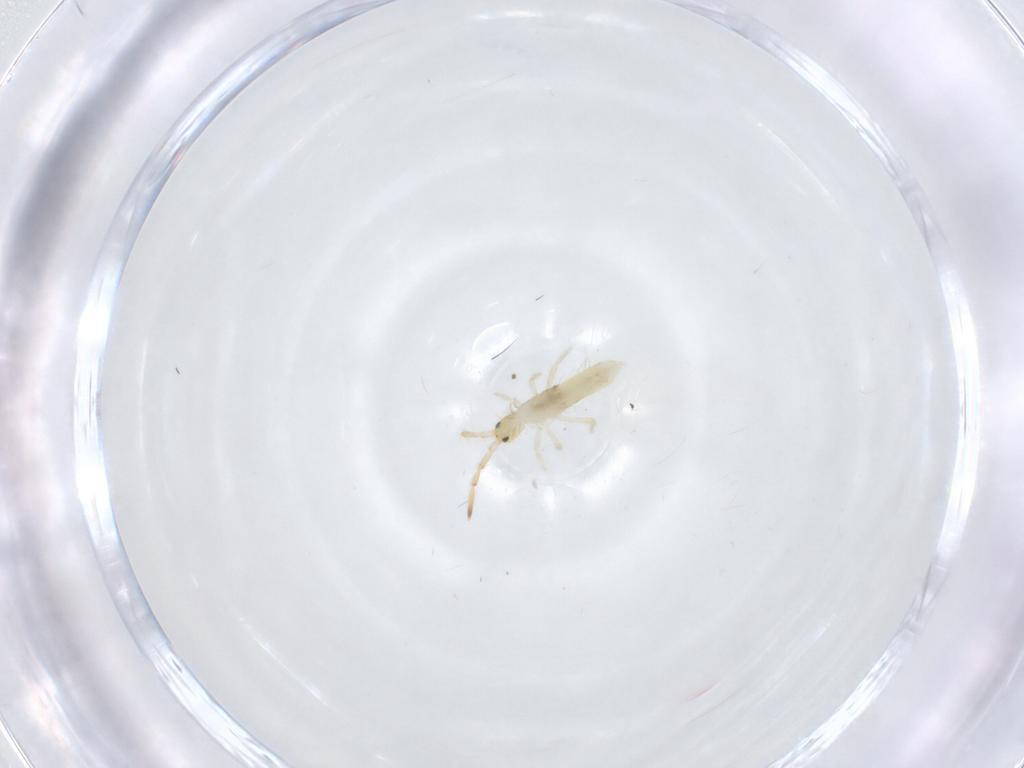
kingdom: Animalia
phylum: Arthropoda
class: Collembola
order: Entomobryomorpha
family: Entomobryidae
